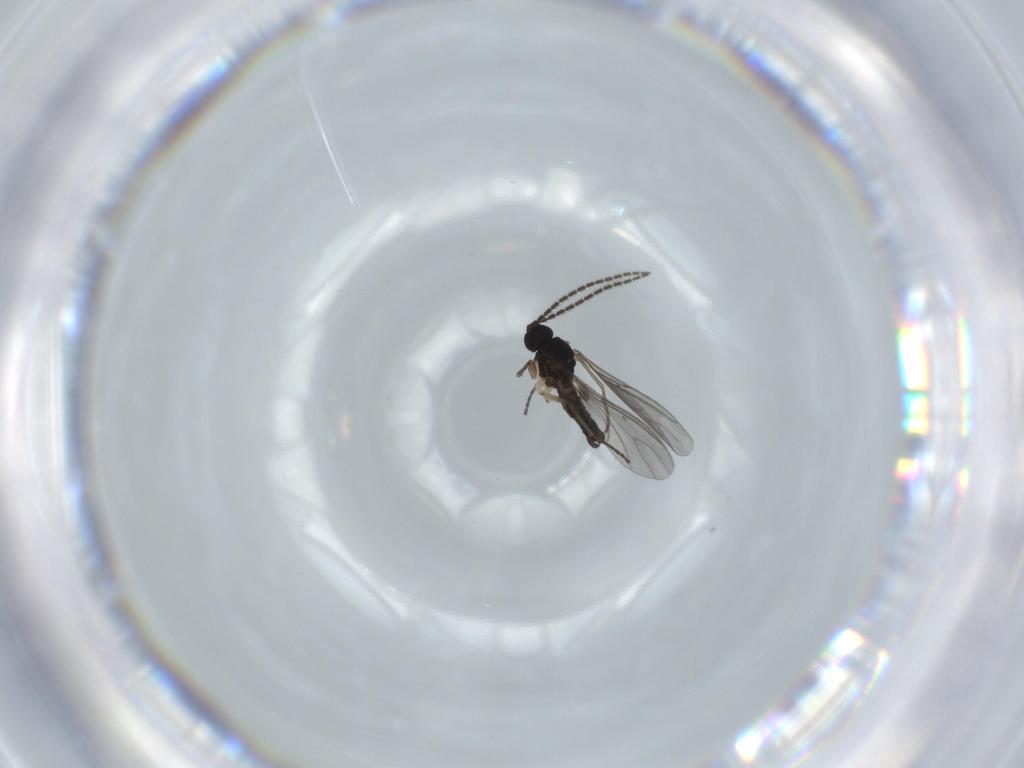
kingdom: Animalia
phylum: Arthropoda
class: Insecta
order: Diptera
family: Sciaridae
